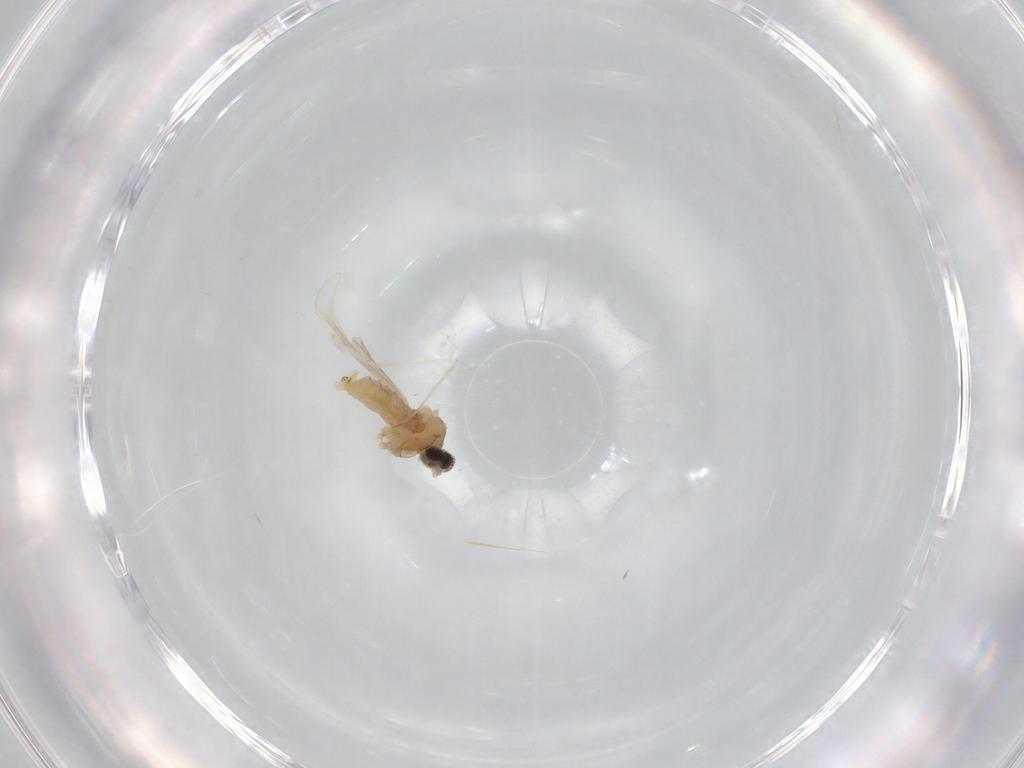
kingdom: Animalia
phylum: Arthropoda
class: Insecta
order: Diptera
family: Cecidomyiidae
